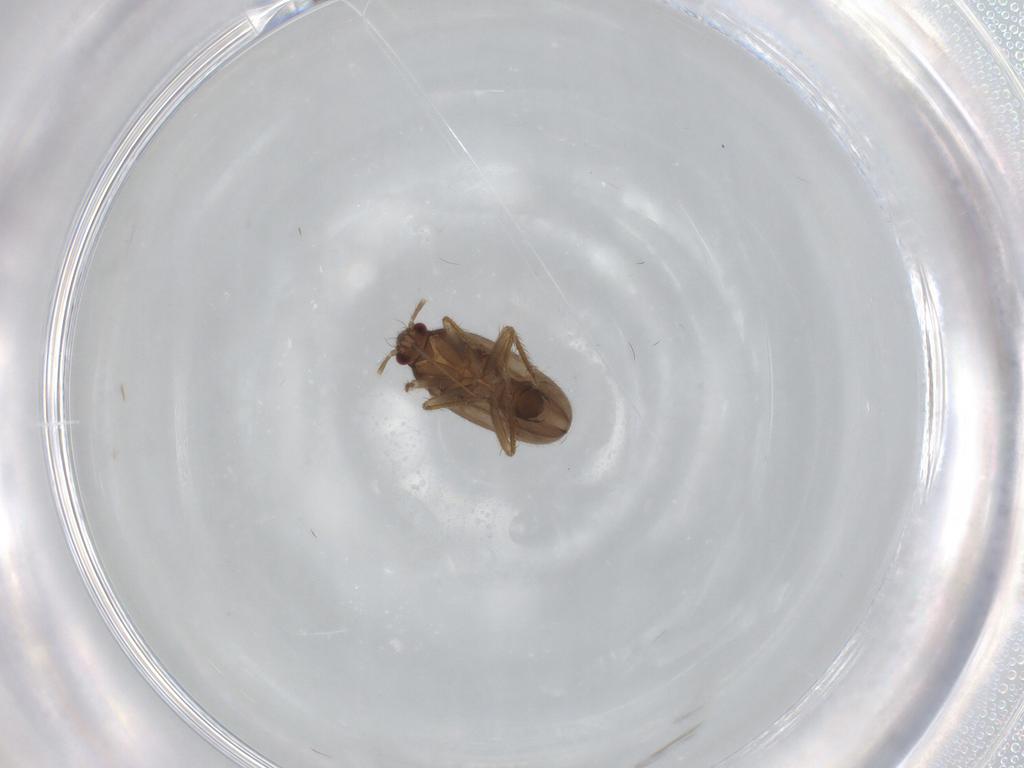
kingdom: Animalia
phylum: Arthropoda
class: Insecta
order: Hemiptera
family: Ceratocombidae
